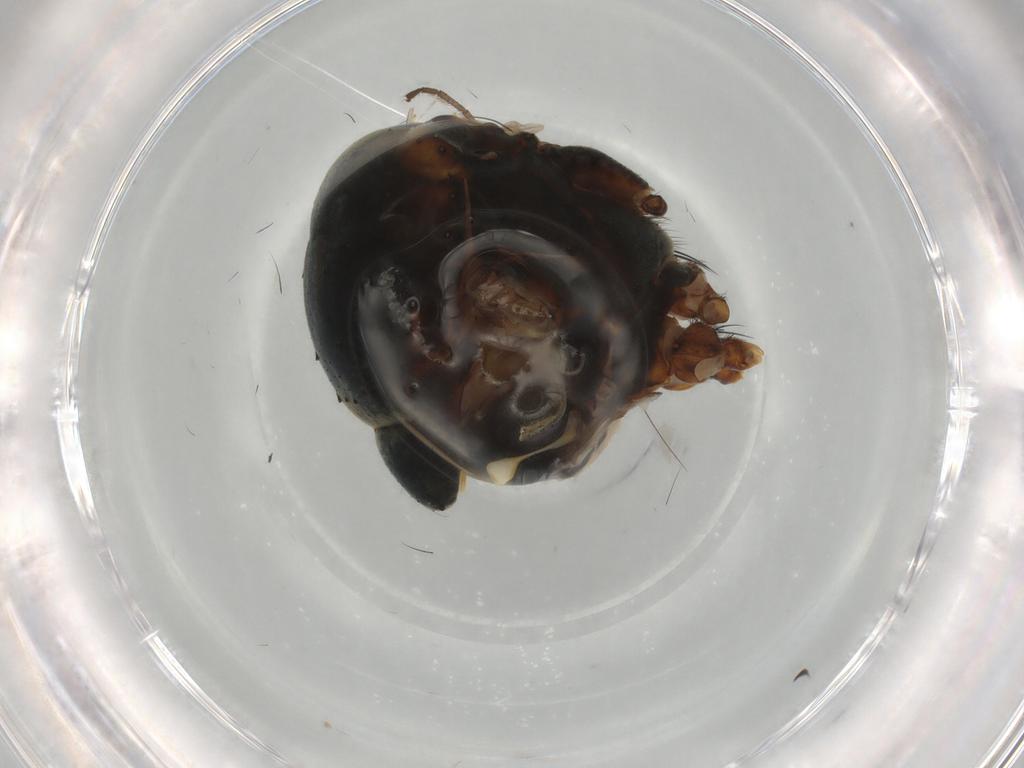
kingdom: Animalia
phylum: Arthropoda
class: Insecta
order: Diptera
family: Muscidae
